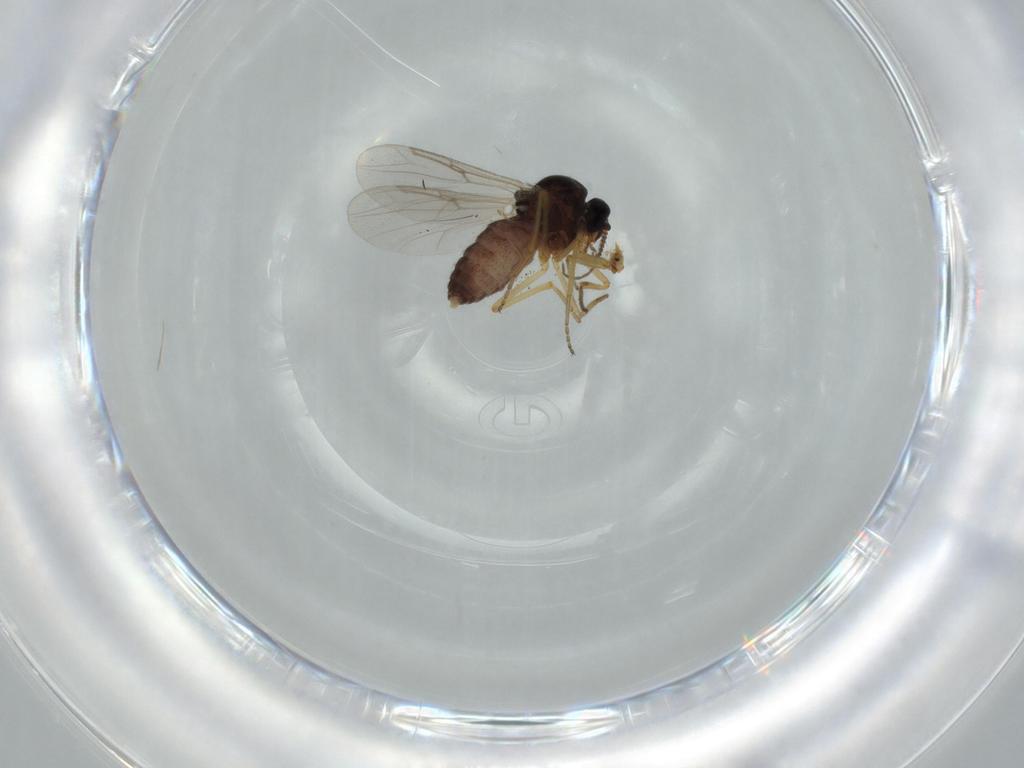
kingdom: Animalia
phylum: Arthropoda
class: Insecta
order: Diptera
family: Ceratopogonidae
